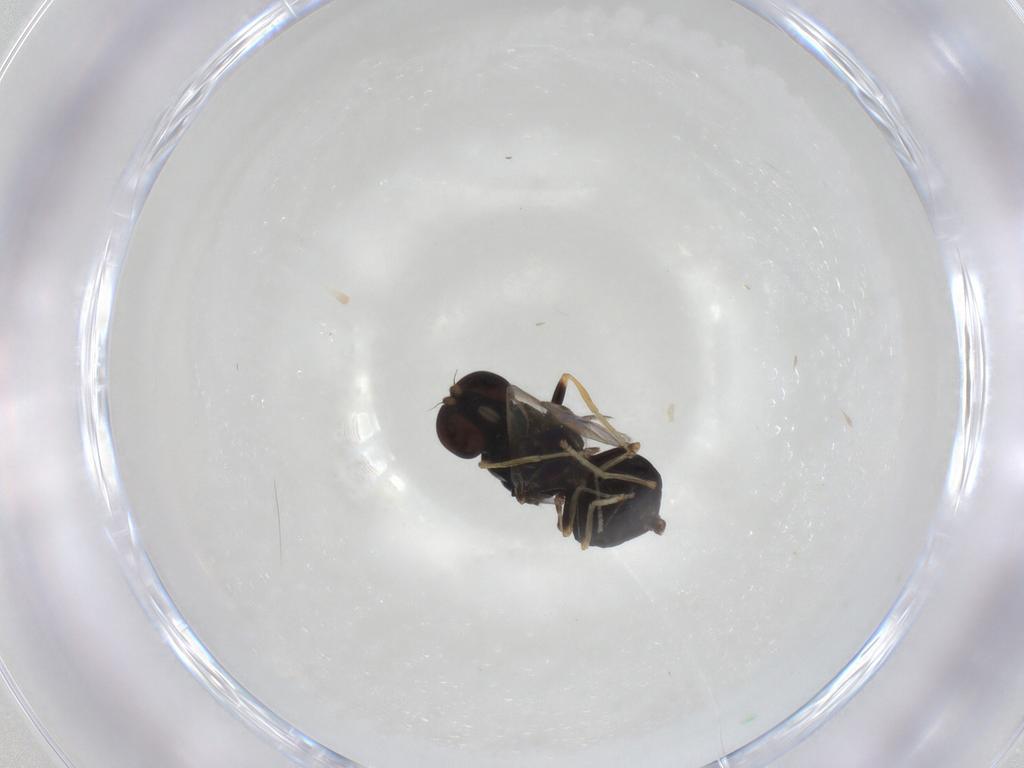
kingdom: Animalia
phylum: Arthropoda
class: Insecta
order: Diptera
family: Stratiomyidae
